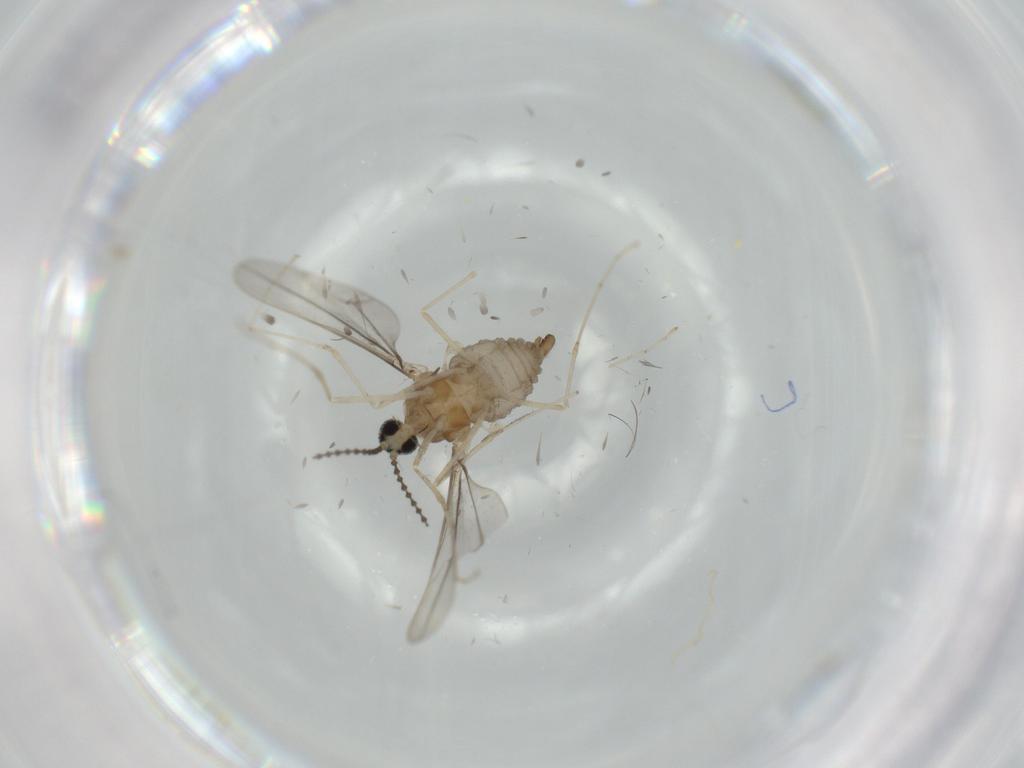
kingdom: Animalia
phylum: Arthropoda
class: Insecta
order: Diptera
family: Cecidomyiidae
